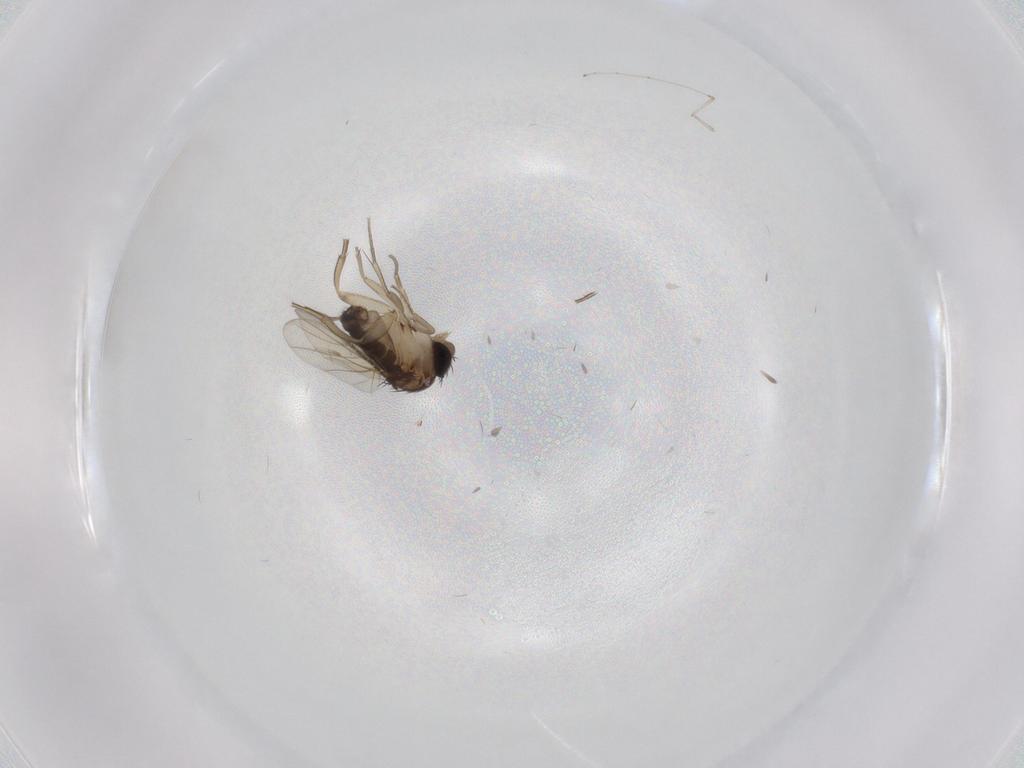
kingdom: Animalia
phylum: Arthropoda
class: Insecta
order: Diptera
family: Phoridae
